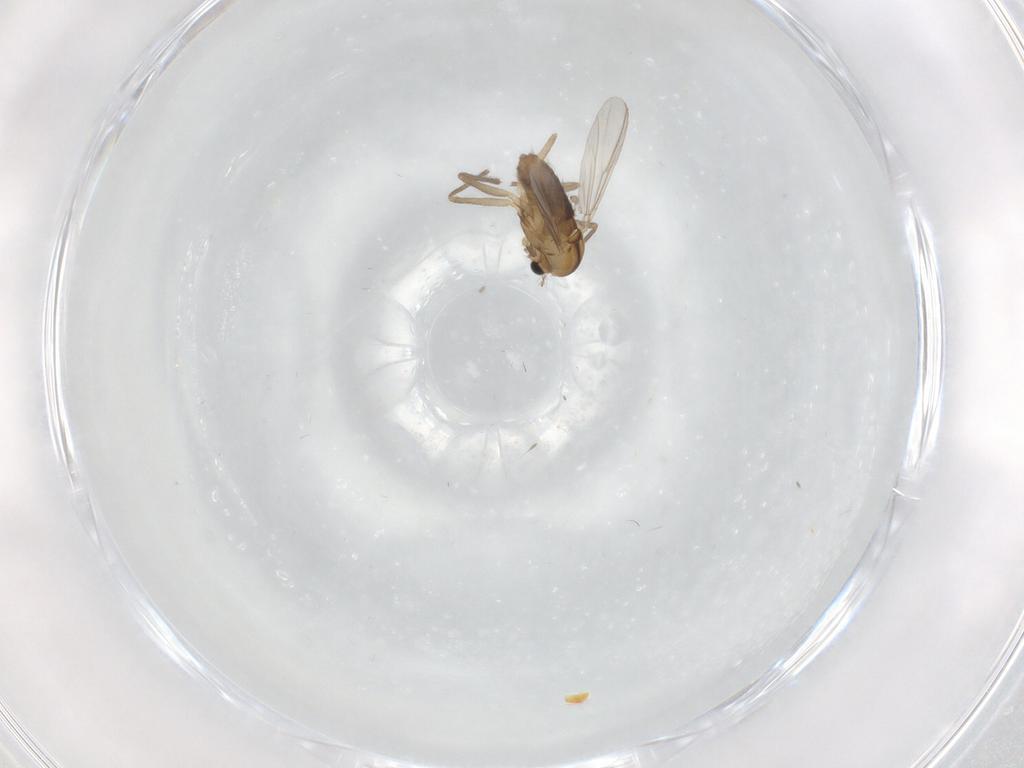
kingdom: Animalia
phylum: Arthropoda
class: Insecta
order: Diptera
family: Chironomidae
